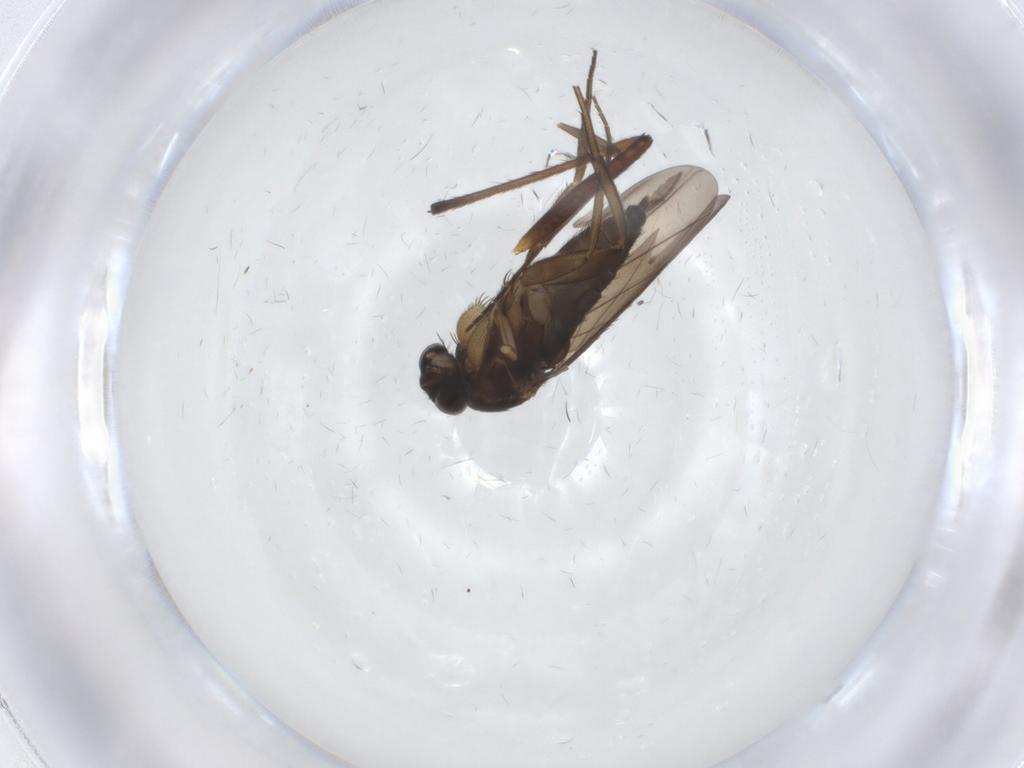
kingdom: Animalia
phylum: Arthropoda
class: Insecta
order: Diptera
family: Phoridae
